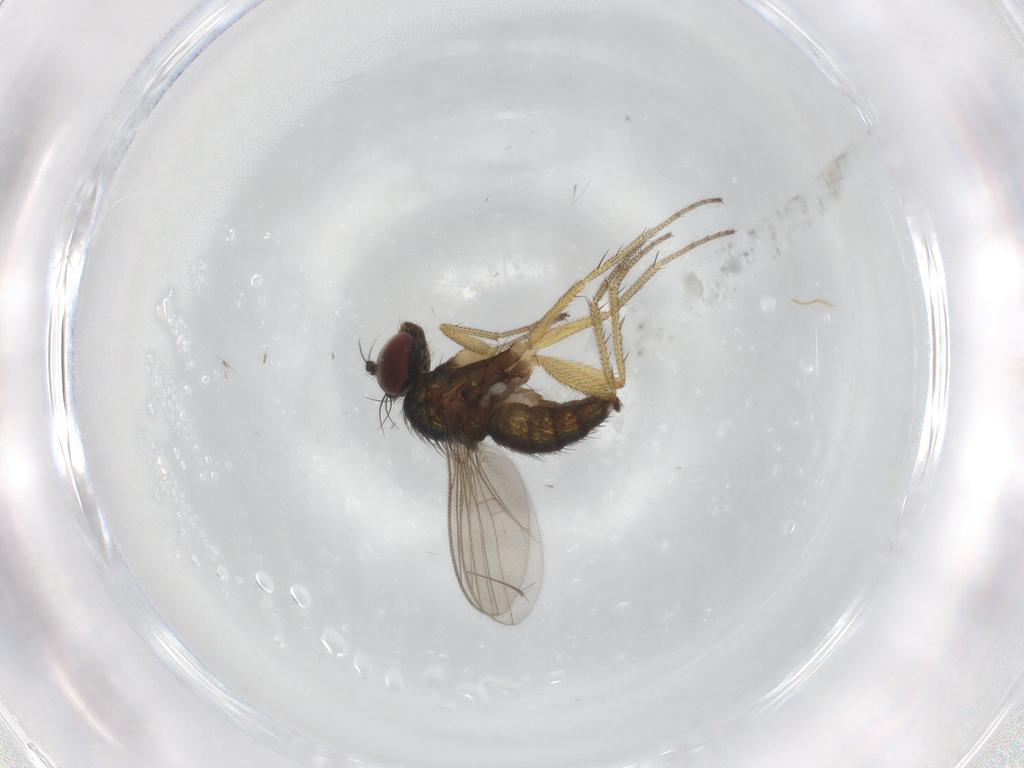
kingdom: Animalia
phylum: Arthropoda
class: Insecta
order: Diptera
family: Dolichopodidae
